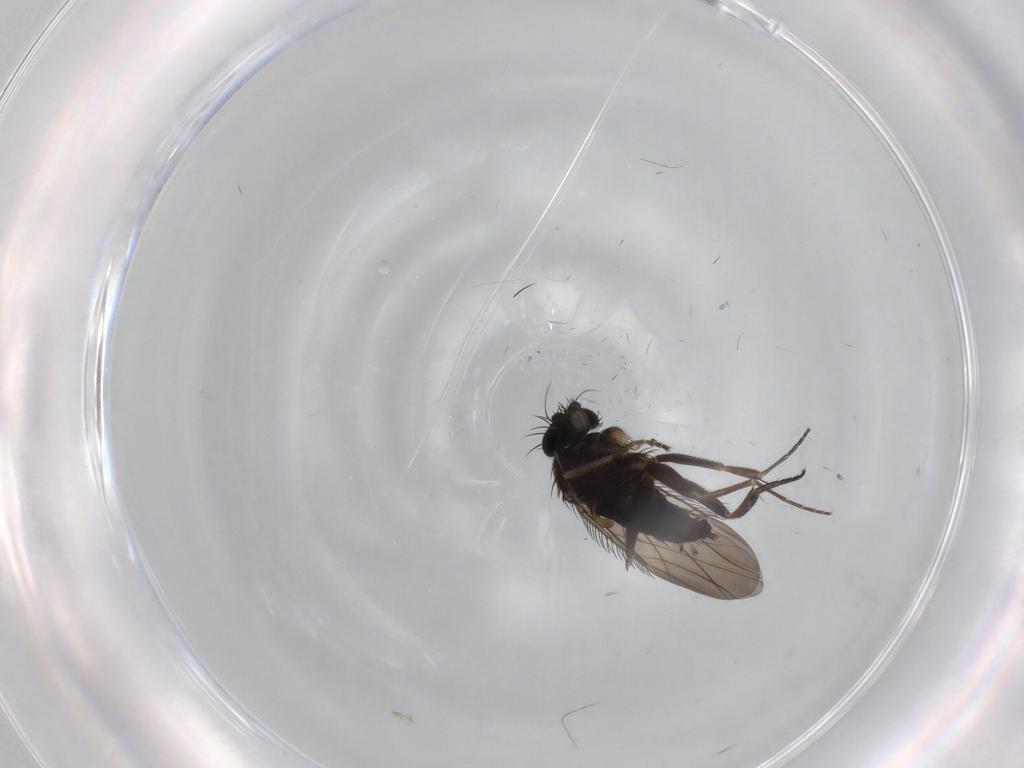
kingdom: Animalia
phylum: Arthropoda
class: Insecta
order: Diptera
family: Phoridae
